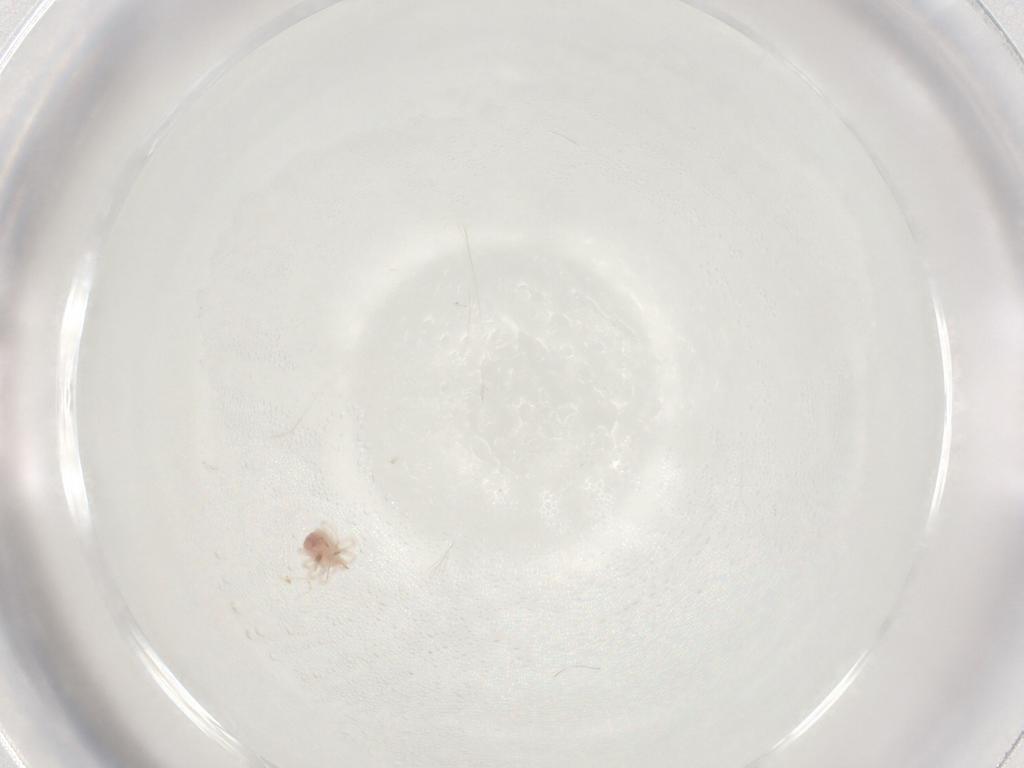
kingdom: Animalia
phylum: Arthropoda
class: Arachnida
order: Trombidiformes
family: Anystidae
